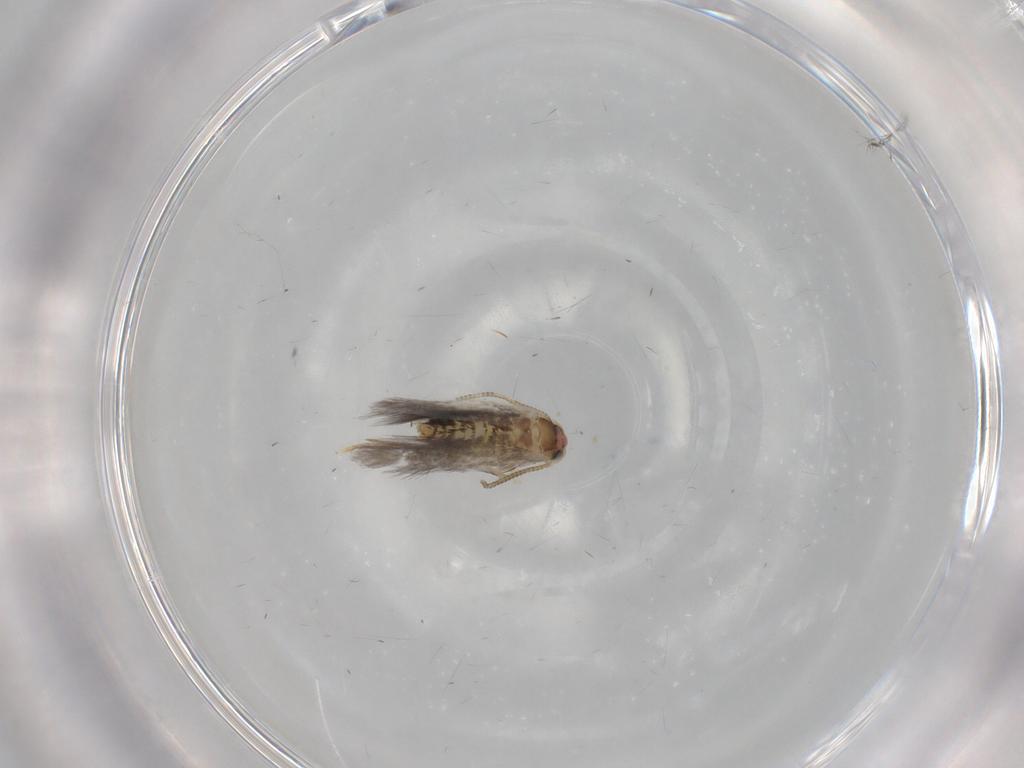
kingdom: Animalia
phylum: Arthropoda
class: Insecta
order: Lepidoptera
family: Nepticulidae
